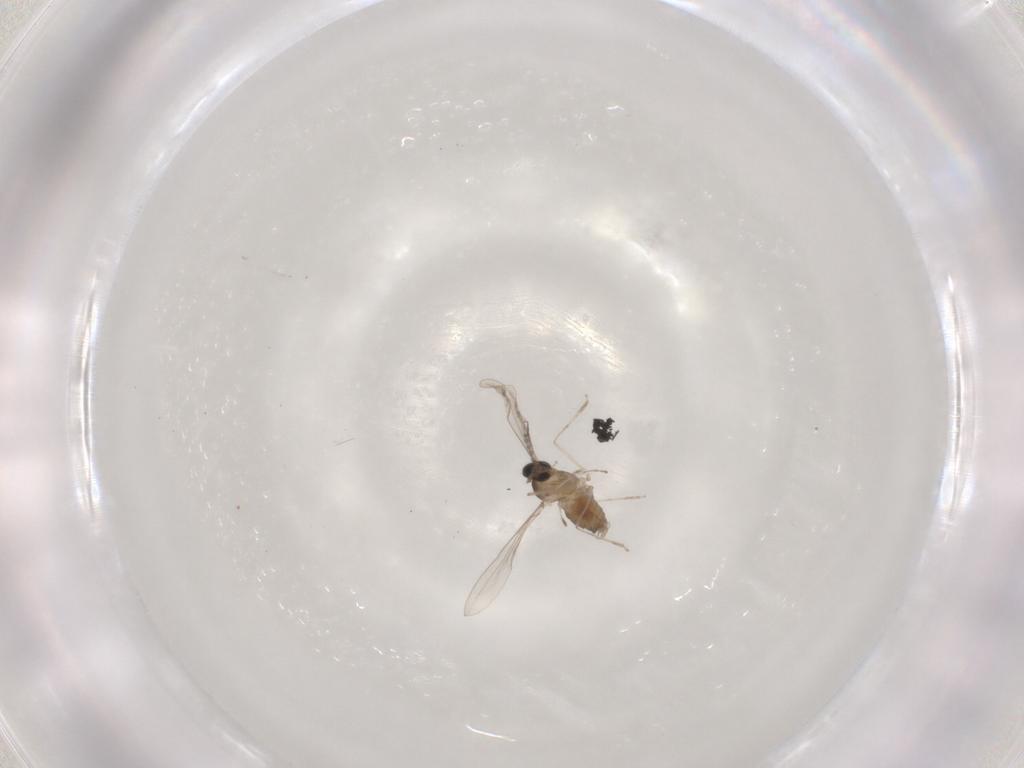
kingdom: Animalia
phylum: Arthropoda
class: Insecta
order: Diptera
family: Cecidomyiidae
